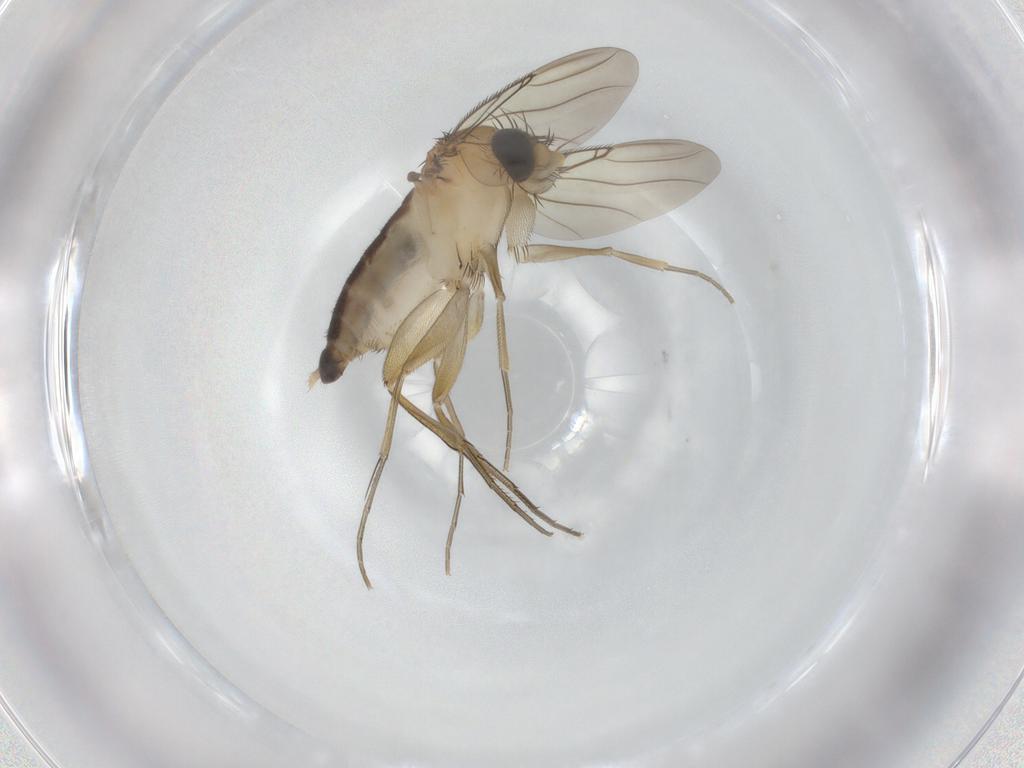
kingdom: Animalia
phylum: Arthropoda
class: Insecta
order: Diptera
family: Phoridae
